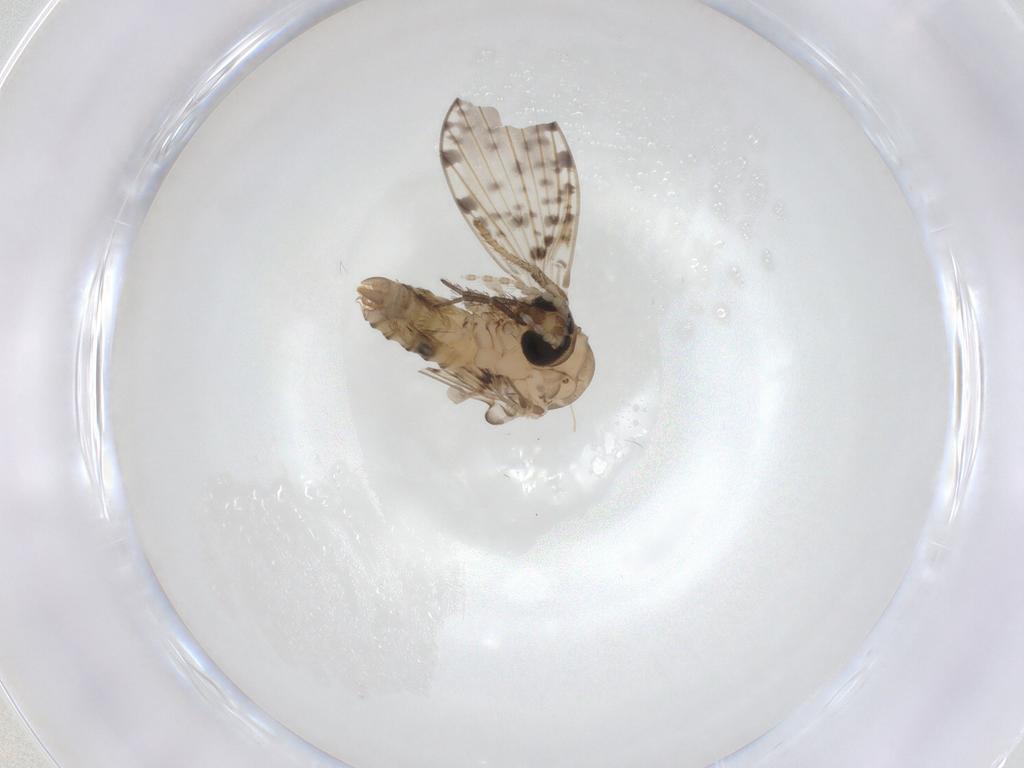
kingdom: Animalia
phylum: Arthropoda
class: Insecta
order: Diptera
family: Psychodidae
